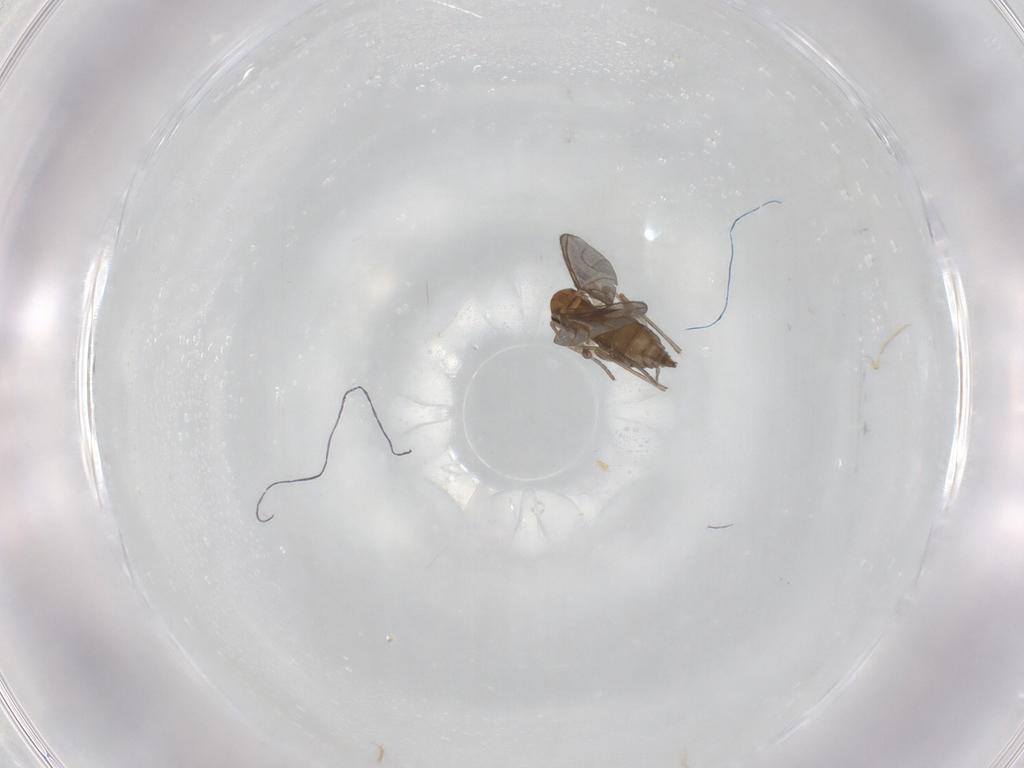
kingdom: Animalia
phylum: Arthropoda
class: Insecta
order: Diptera
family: Sciaridae
